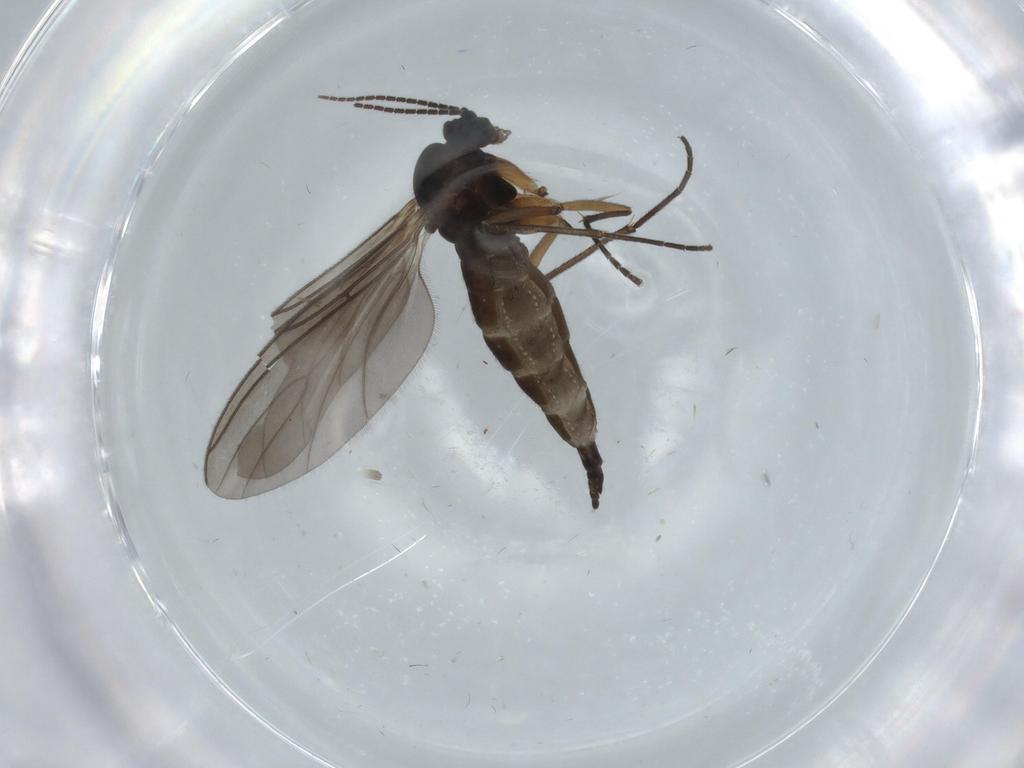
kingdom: Animalia
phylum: Arthropoda
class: Insecta
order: Diptera
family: Sciaridae
